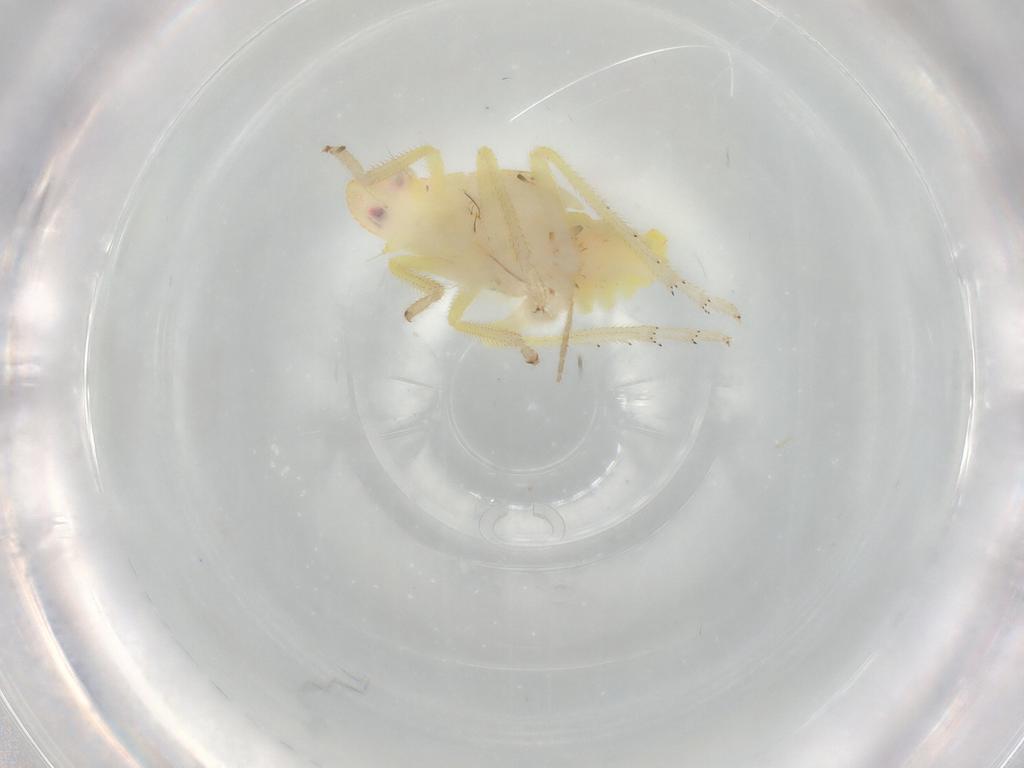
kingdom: Animalia
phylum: Arthropoda
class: Insecta
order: Hemiptera
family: Tropiduchidae
